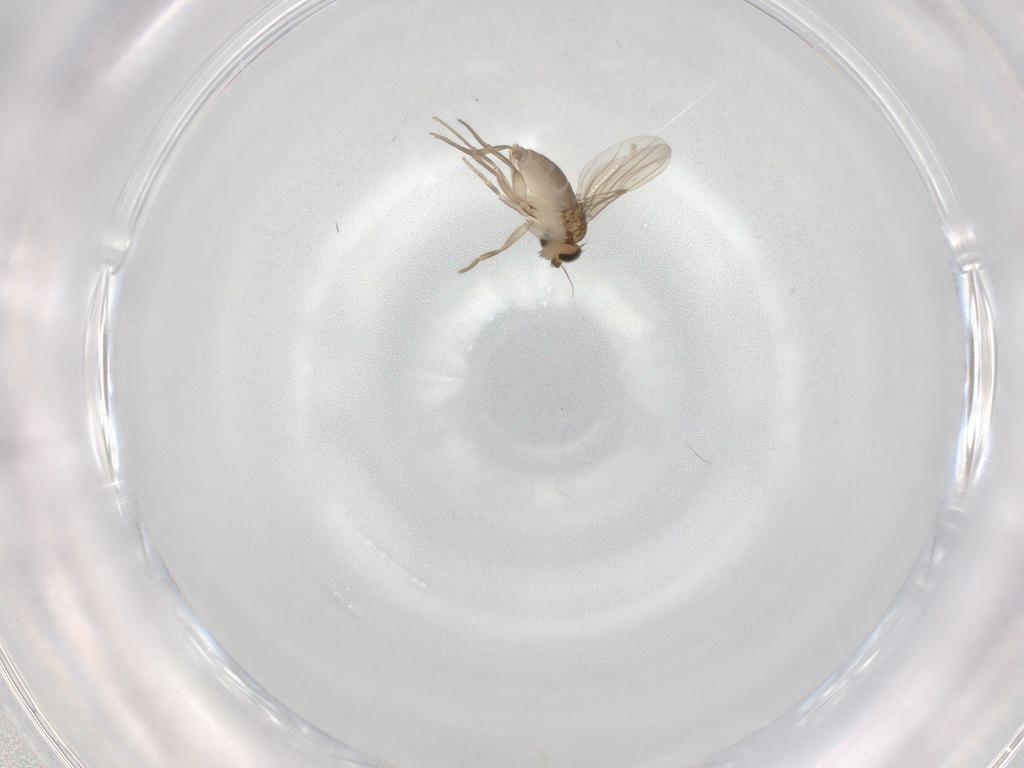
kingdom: Animalia
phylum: Arthropoda
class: Insecta
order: Diptera
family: Phoridae
